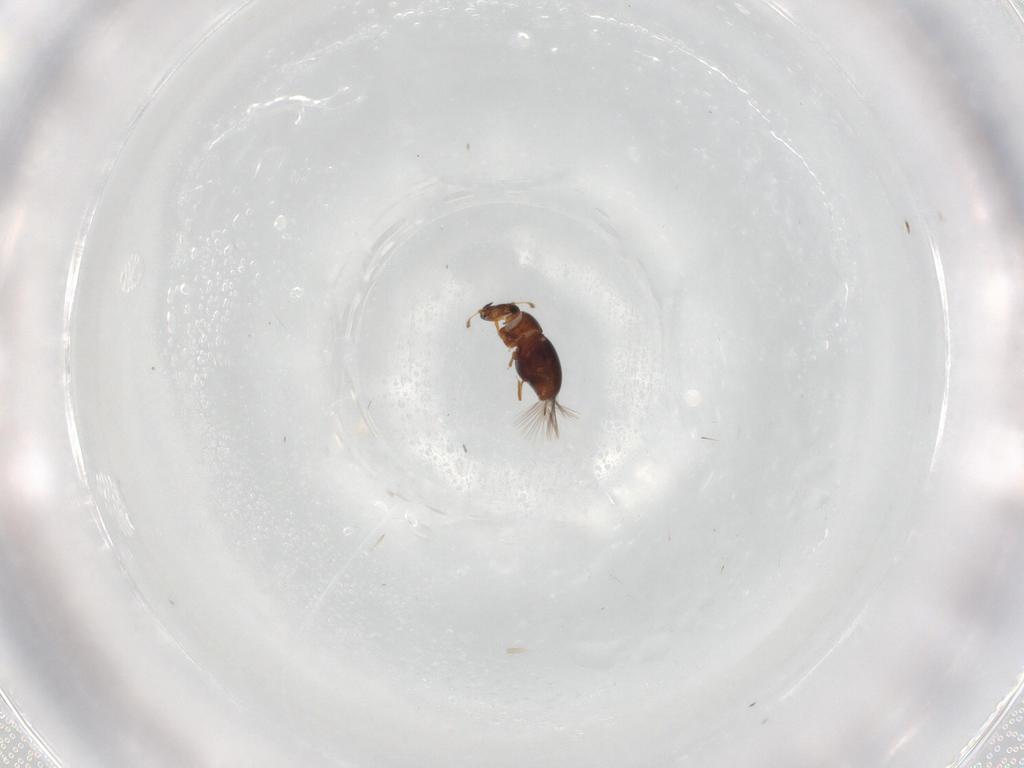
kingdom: Animalia
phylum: Arthropoda
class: Insecta
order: Coleoptera
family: Ptiliidae
